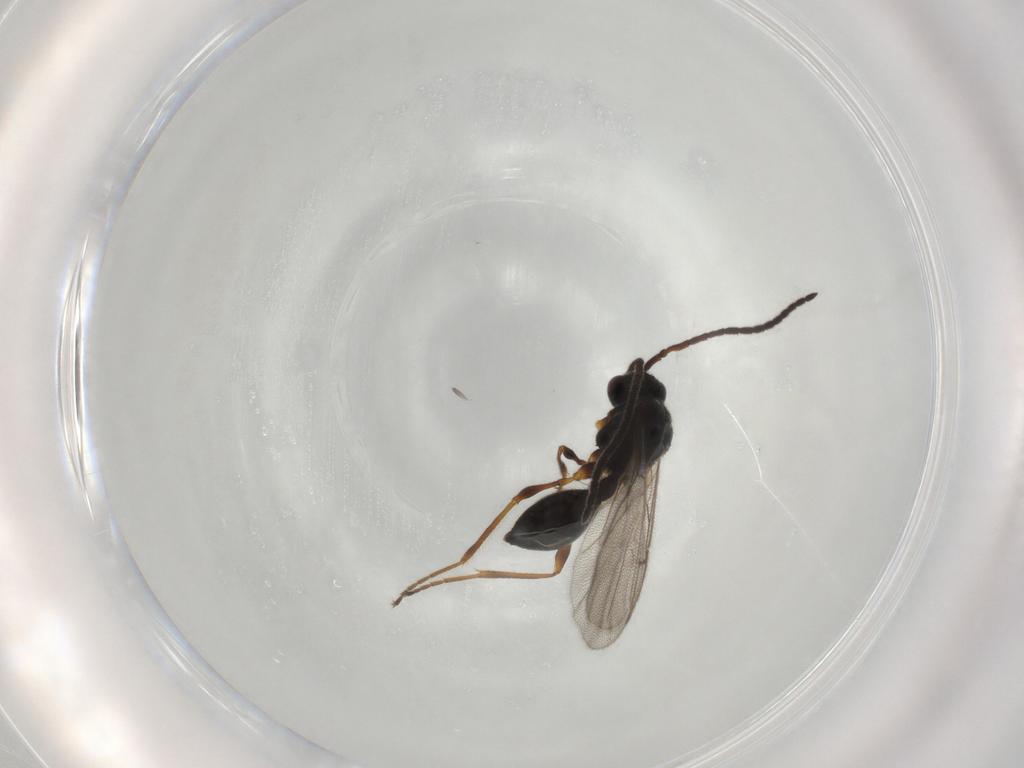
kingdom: Animalia
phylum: Arthropoda
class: Insecta
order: Hymenoptera
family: Diapriidae
